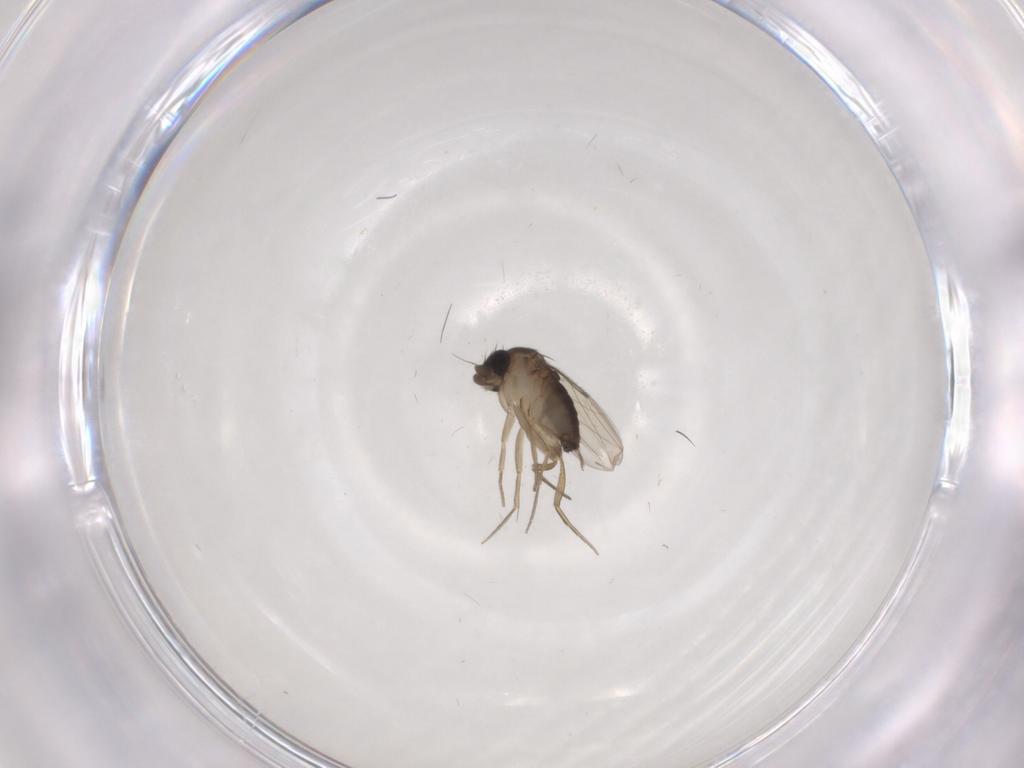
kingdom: Animalia
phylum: Arthropoda
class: Insecta
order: Diptera
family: Phoridae
